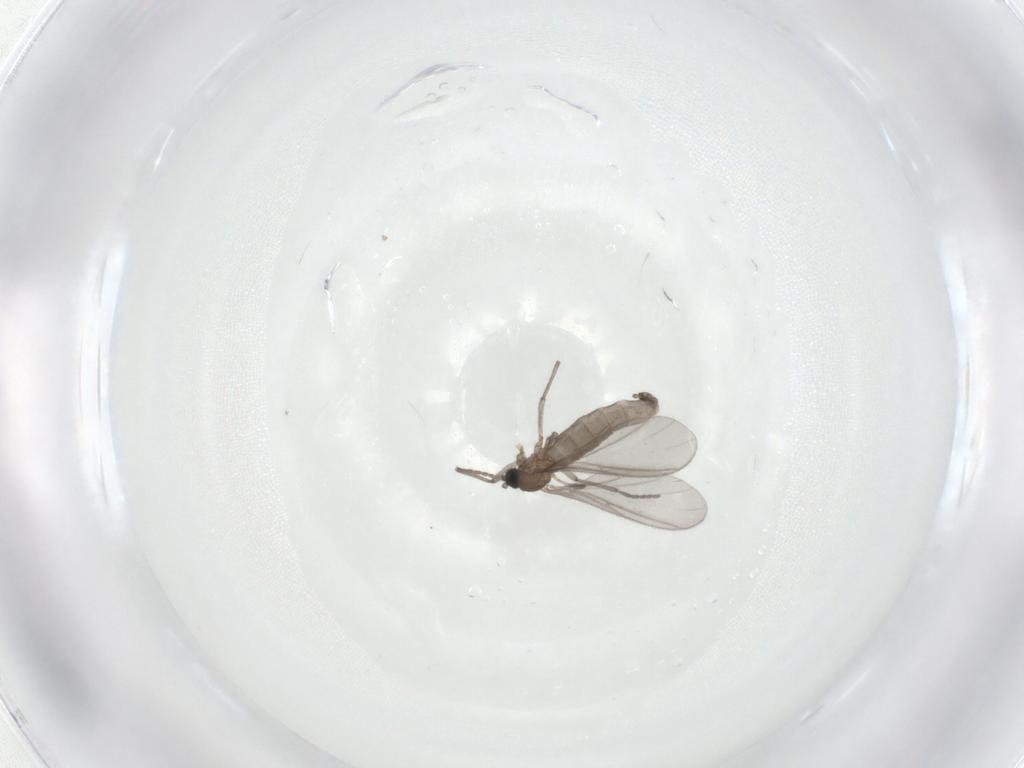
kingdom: Animalia
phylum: Arthropoda
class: Insecta
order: Diptera
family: Sciaridae
